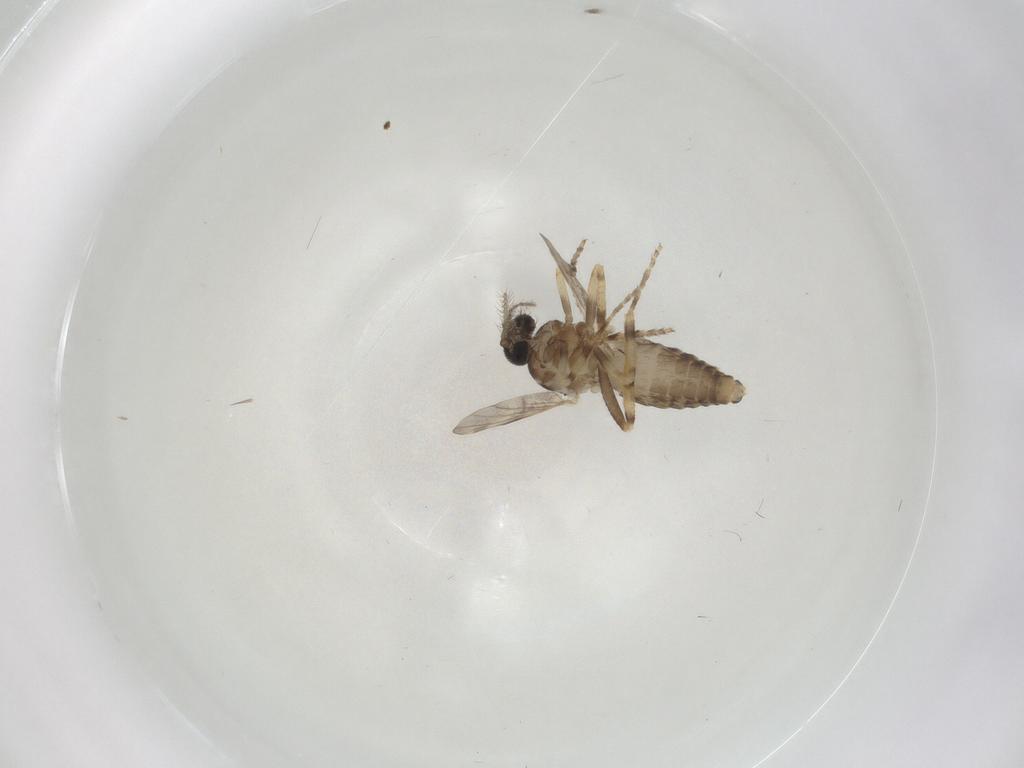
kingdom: Animalia
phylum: Arthropoda
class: Insecta
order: Diptera
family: Ceratopogonidae
